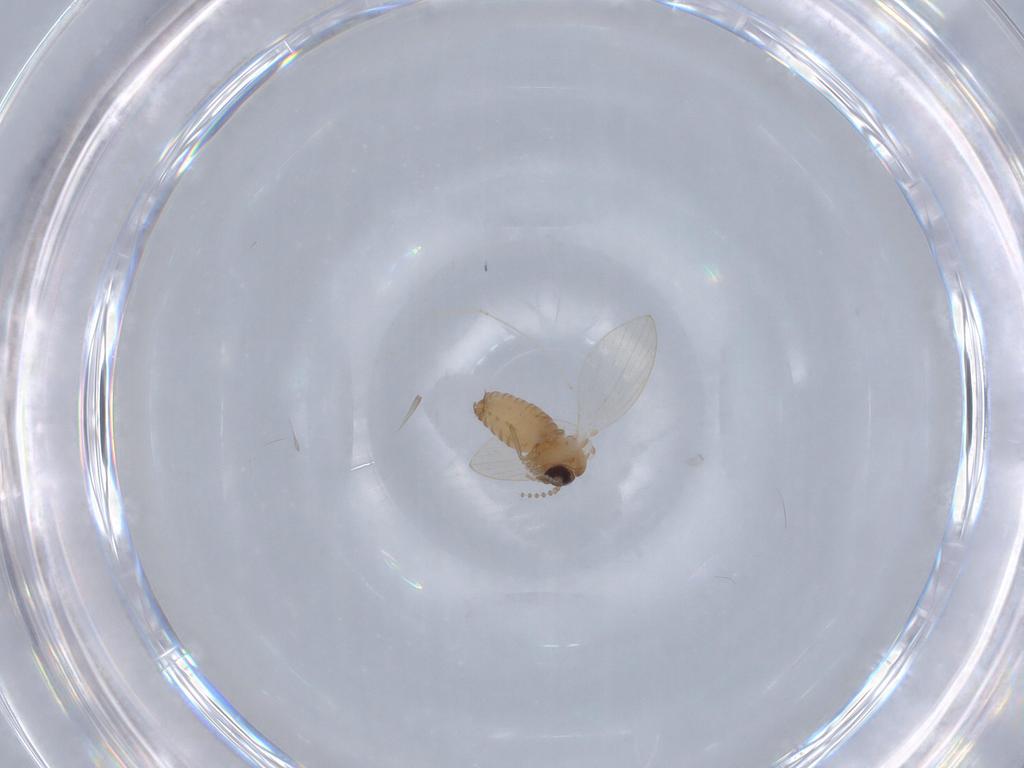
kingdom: Animalia
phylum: Arthropoda
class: Insecta
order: Diptera
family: Psychodidae
